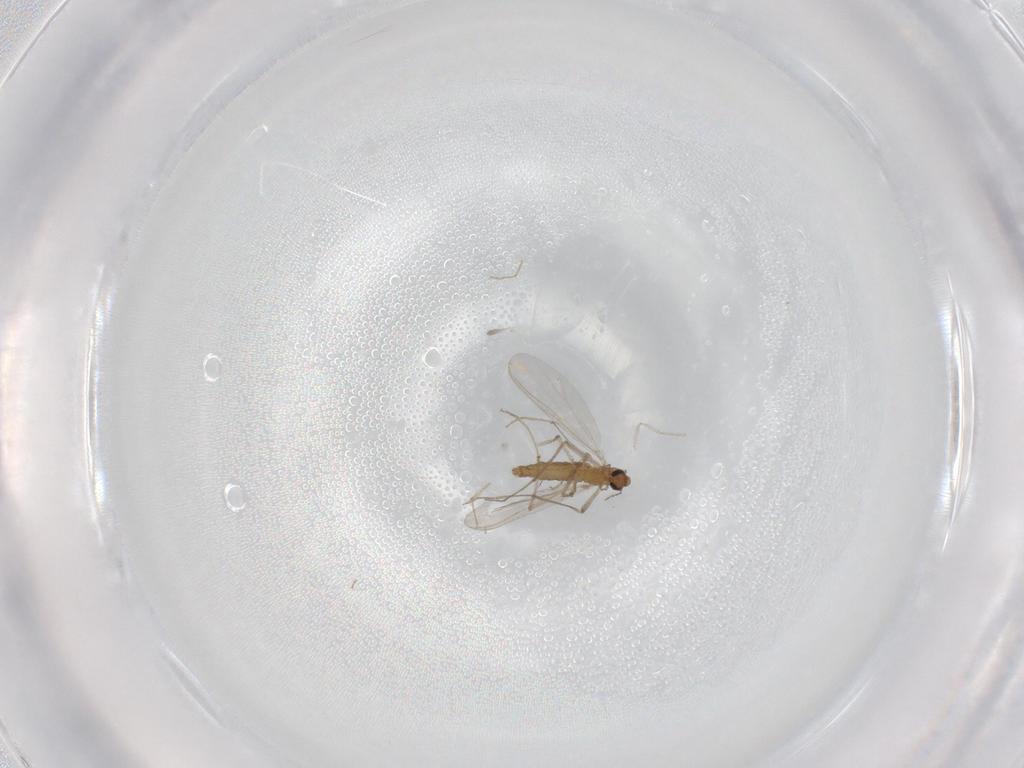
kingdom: Animalia
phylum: Arthropoda
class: Insecta
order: Diptera
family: Cecidomyiidae
